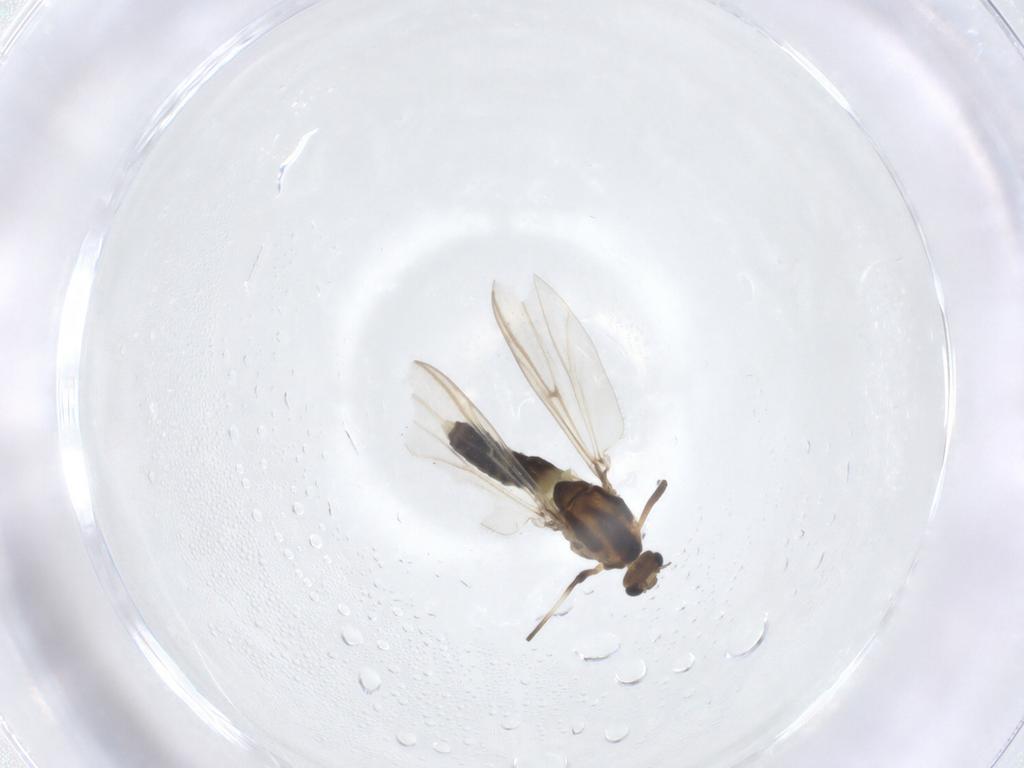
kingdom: Animalia
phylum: Arthropoda
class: Insecta
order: Diptera
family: Chironomidae
